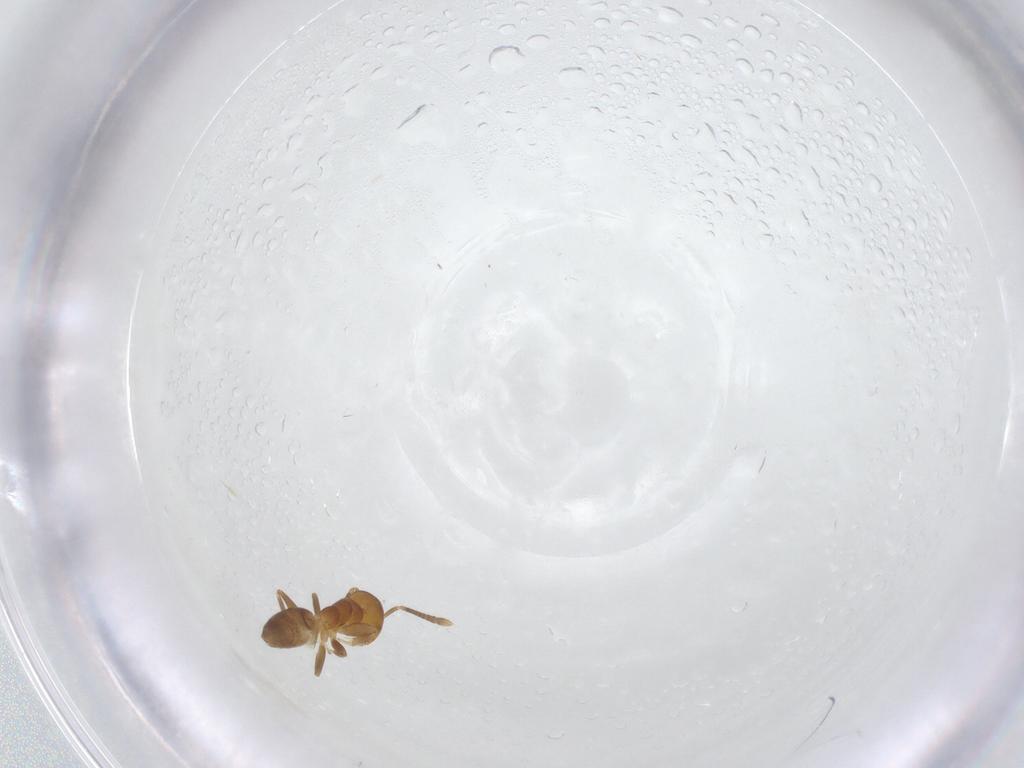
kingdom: Animalia
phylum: Arthropoda
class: Insecta
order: Hymenoptera
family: Formicidae
